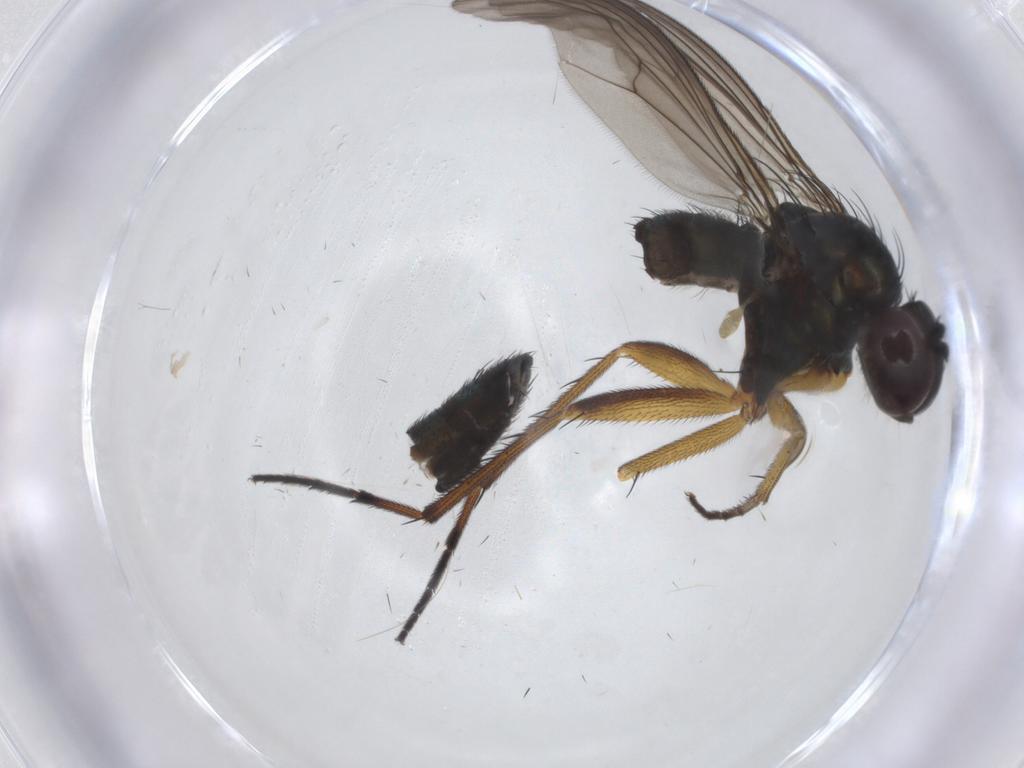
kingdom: Animalia
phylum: Arthropoda
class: Insecta
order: Diptera
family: Dolichopodidae
